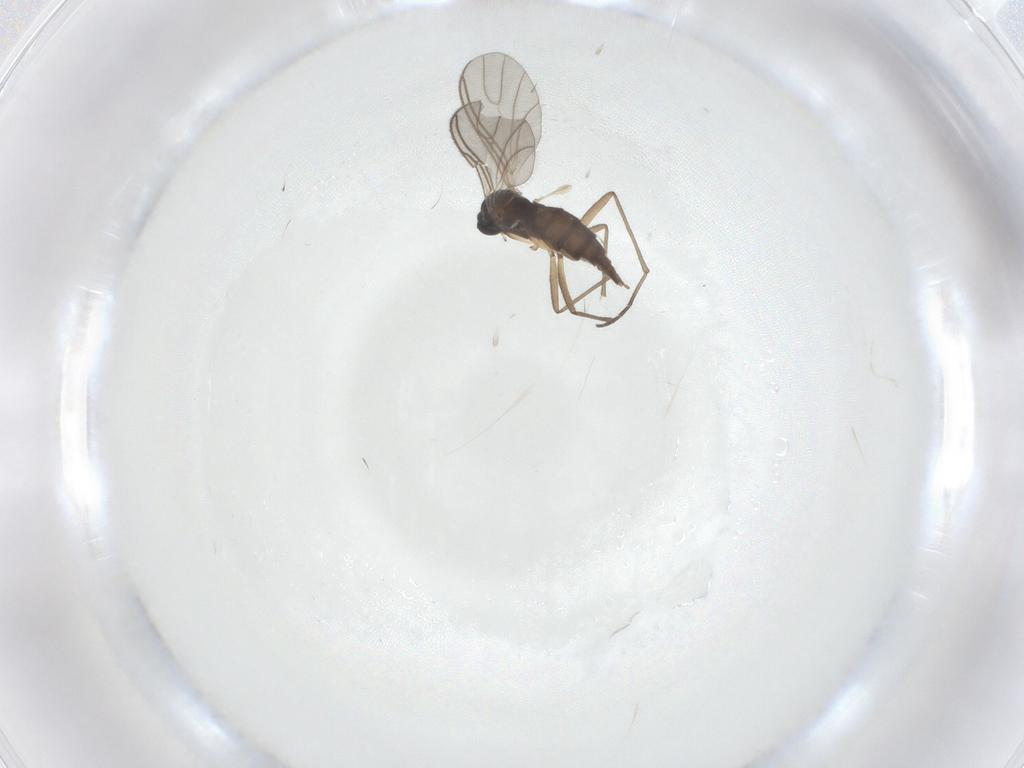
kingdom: Animalia
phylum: Arthropoda
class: Insecta
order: Diptera
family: Sciaridae
